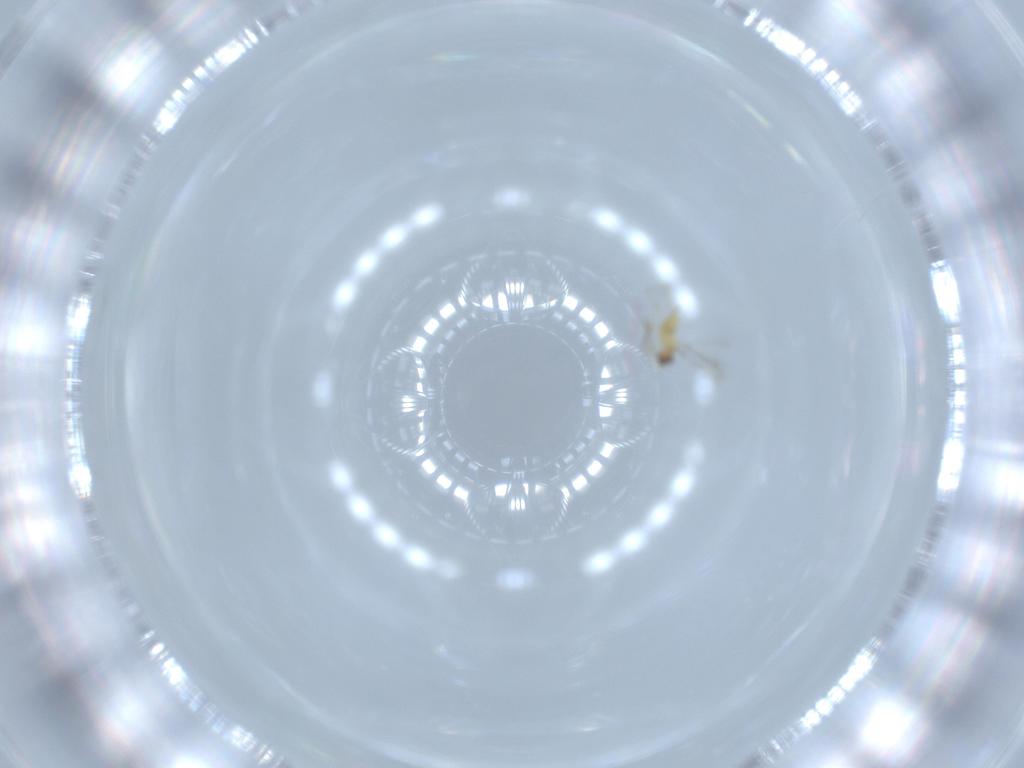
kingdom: Animalia
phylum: Arthropoda
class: Insecta
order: Hymenoptera
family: Mymaridae
